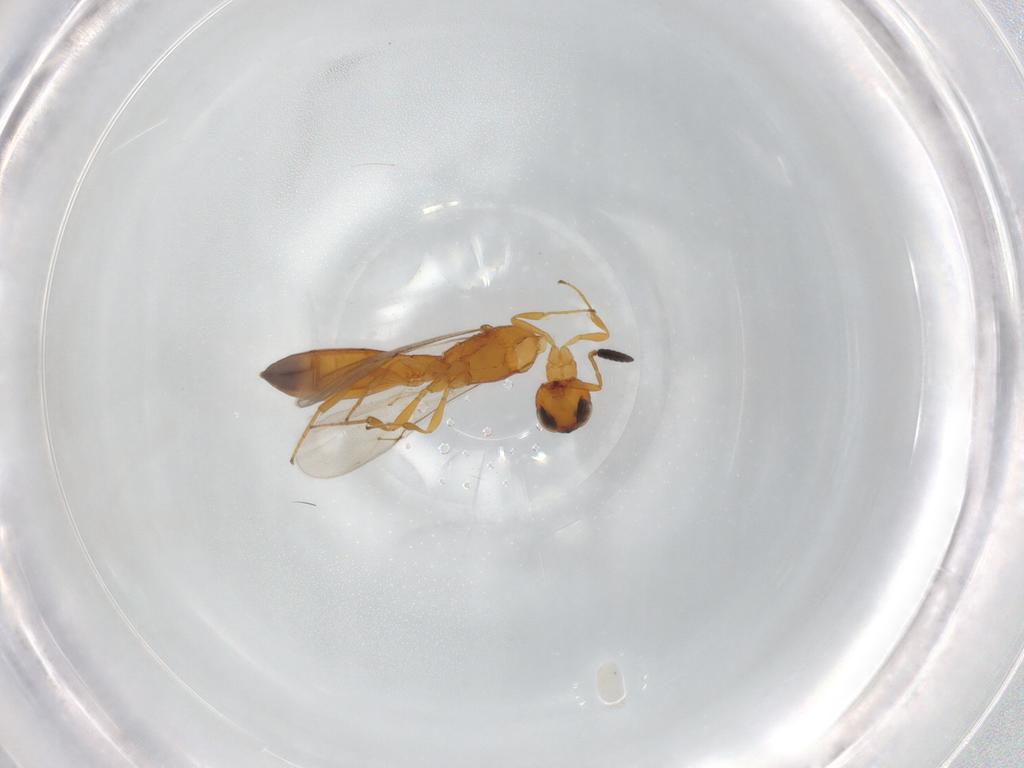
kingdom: Animalia
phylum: Arthropoda
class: Insecta
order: Hymenoptera
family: Scelionidae
